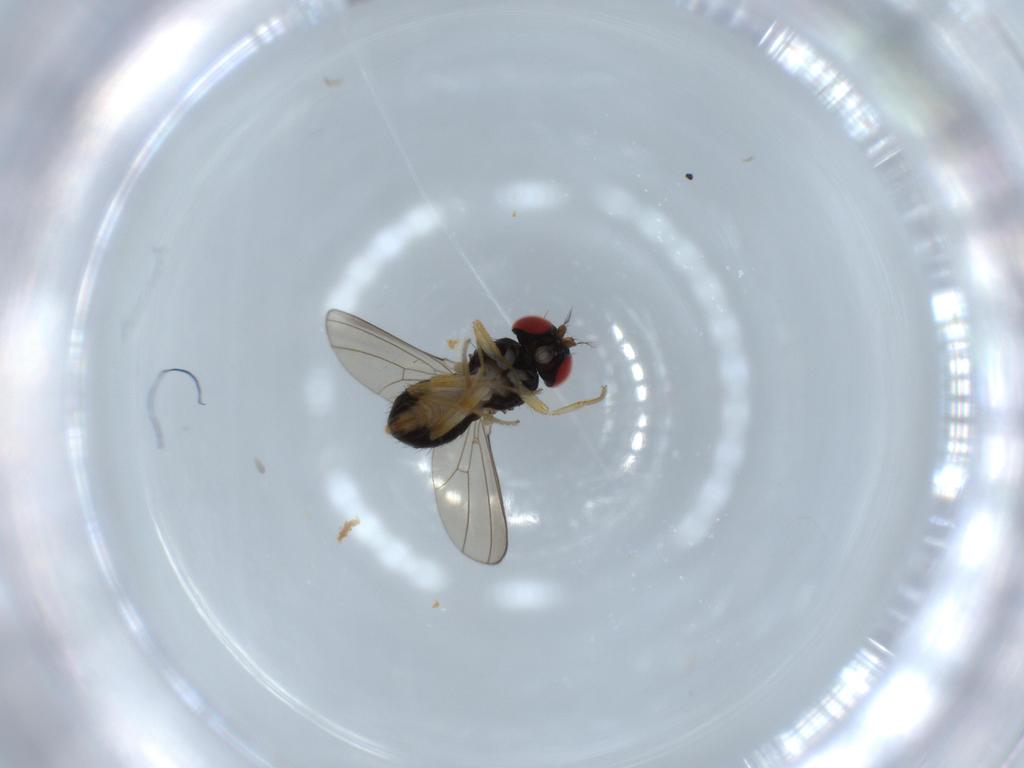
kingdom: Animalia
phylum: Arthropoda
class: Insecta
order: Diptera
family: Drosophilidae
